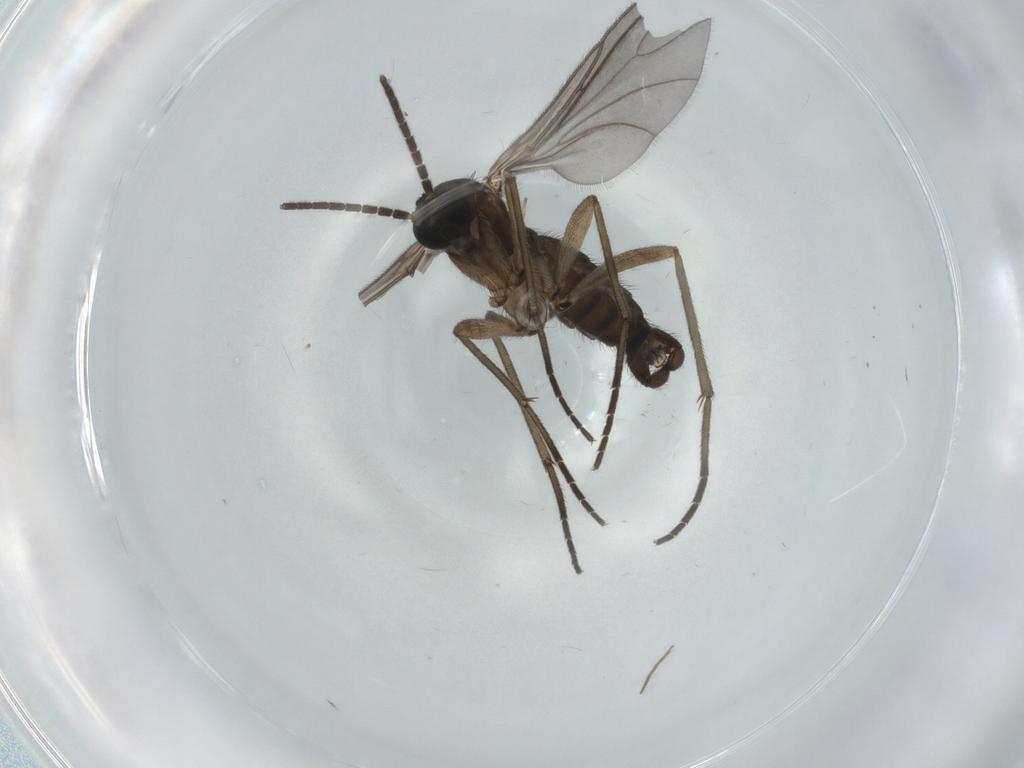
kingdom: Animalia
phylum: Arthropoda
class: Insecta
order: Diptera
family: Sciaridae
